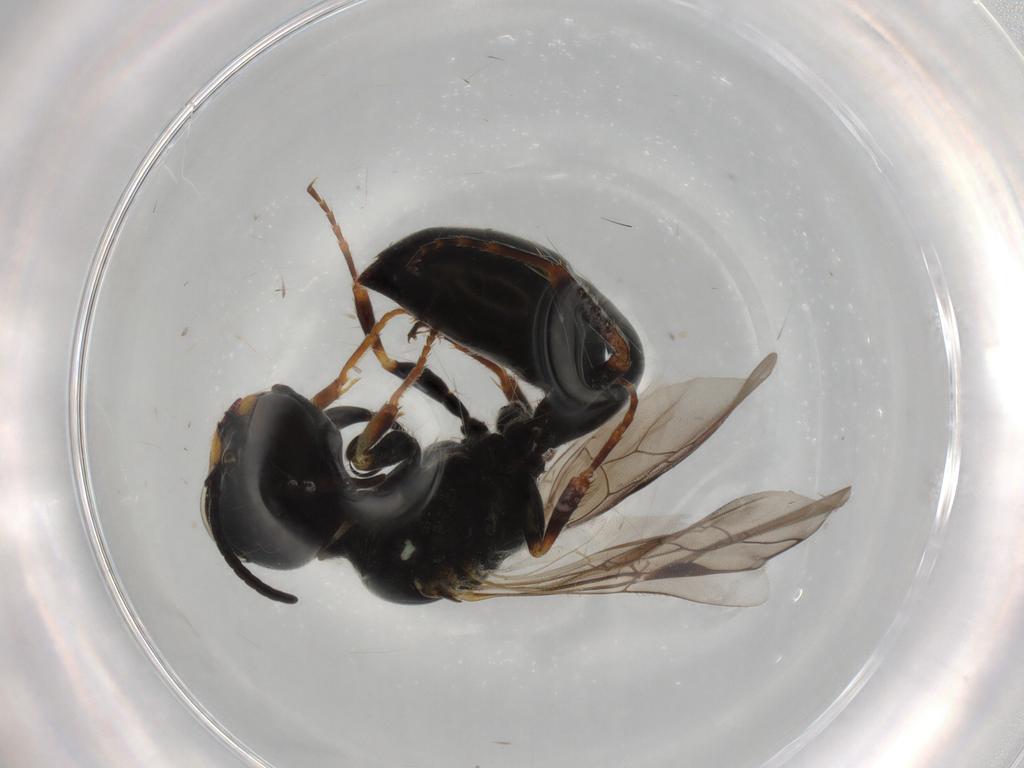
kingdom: Animalia
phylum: Arthropoda
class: Insecta
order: Hymenoptera
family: Crabronidae
